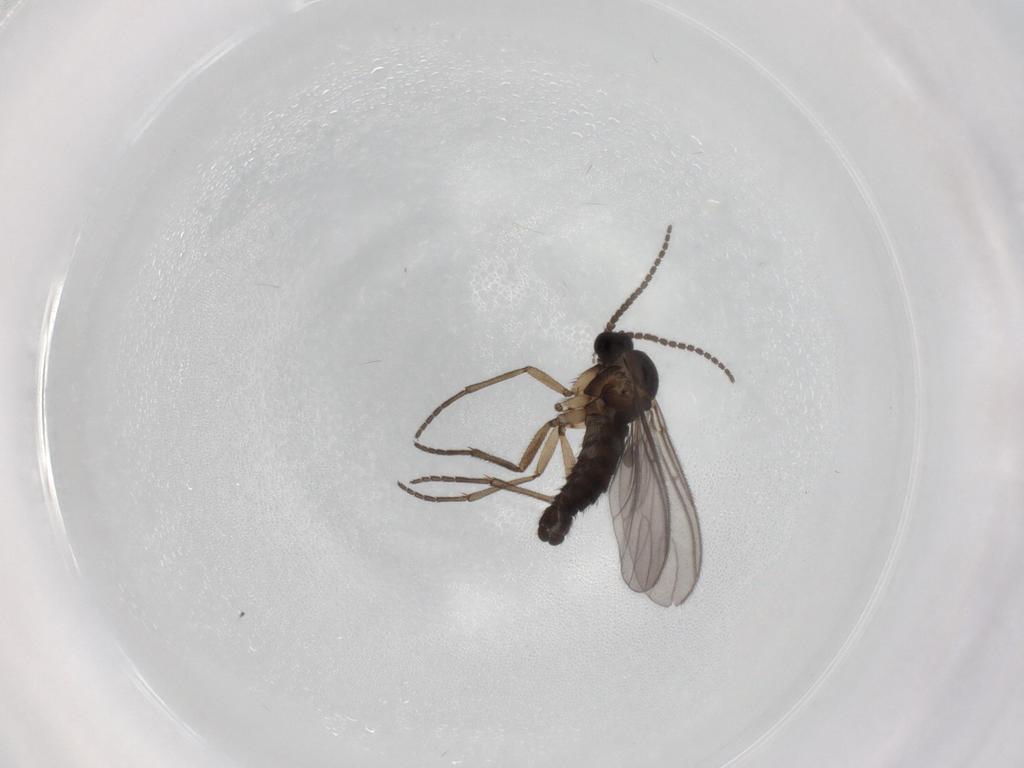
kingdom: Animalia
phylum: Arthropoda
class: Insecta
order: Diptera
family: Sciaridae
